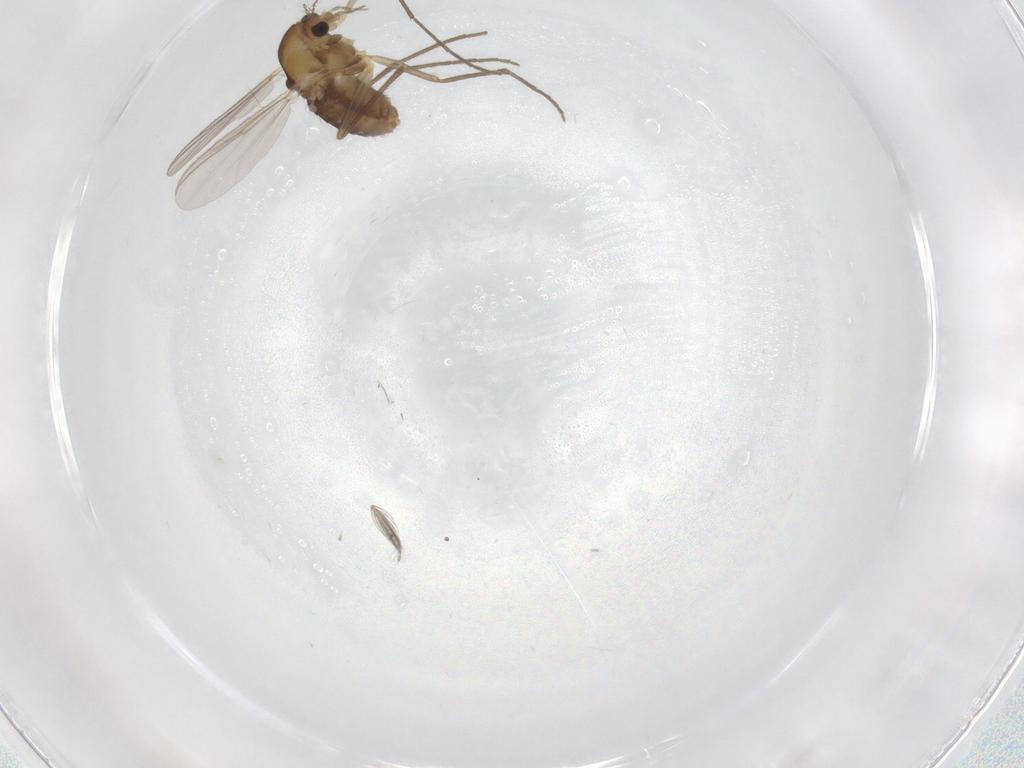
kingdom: Animalia
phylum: Arthropoda
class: Insecta
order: Diptera
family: Chironomidae
